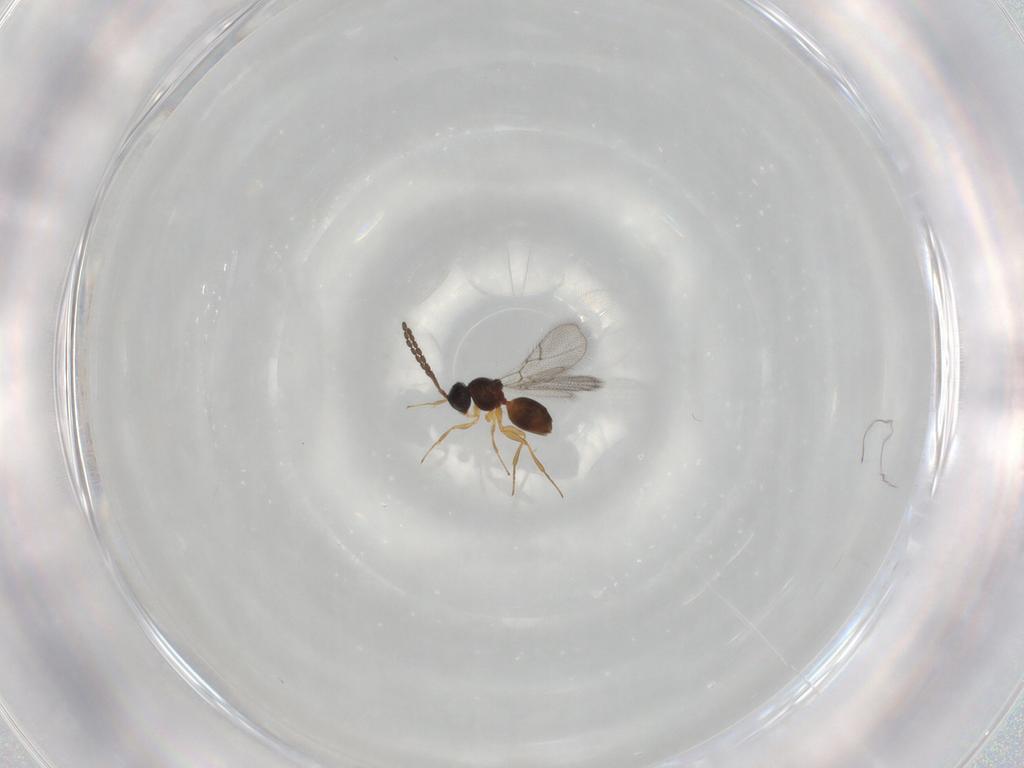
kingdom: Animalia
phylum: Arthropoda
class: Insecta
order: Hymenoptera
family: Figitidae
